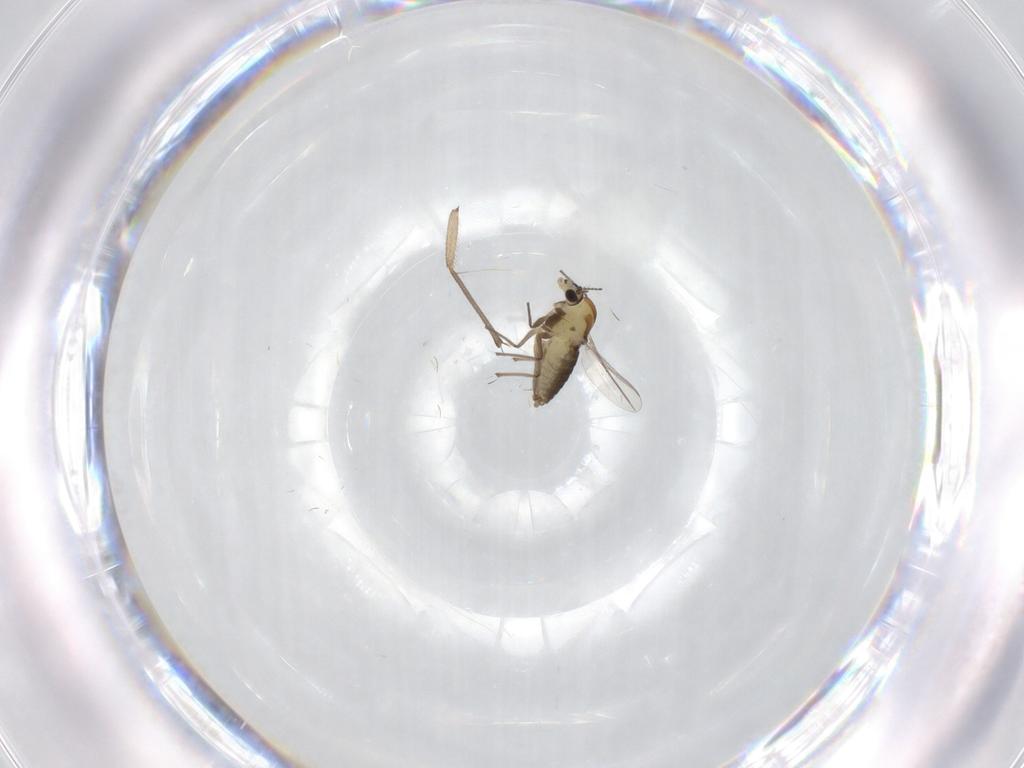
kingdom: Animalia
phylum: Arthropoda
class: Insecta
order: Diptera
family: Chironomidae
